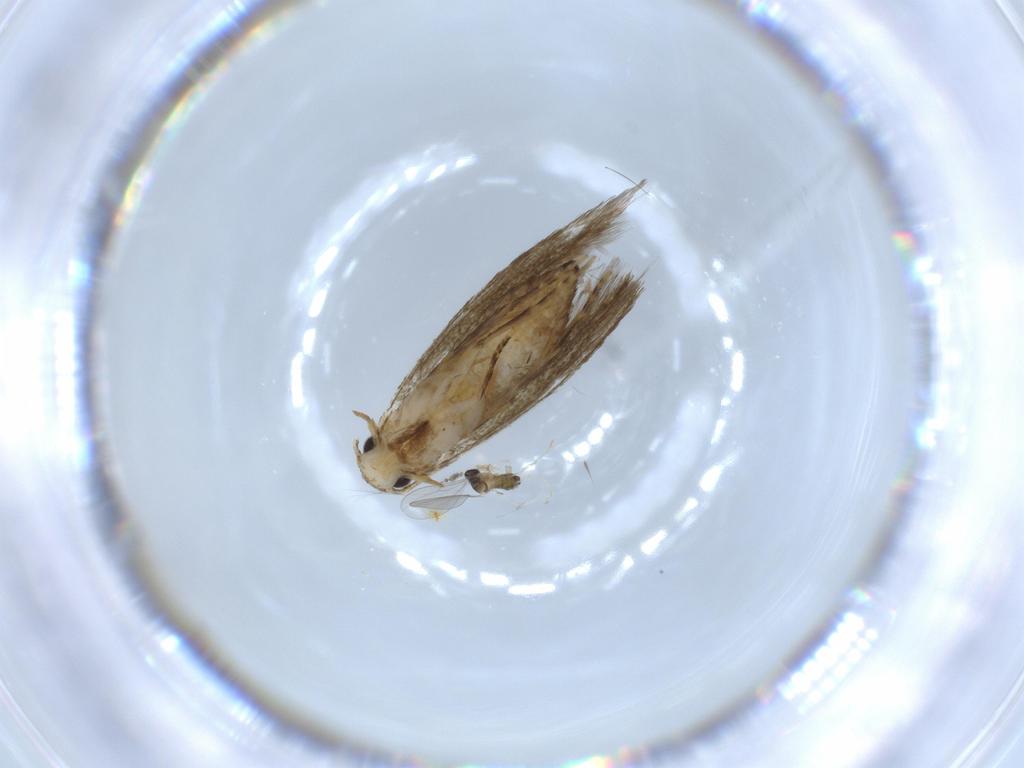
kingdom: Animalia
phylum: Arthropoda
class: Insecta
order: Lepidoptera
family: Tineidae
